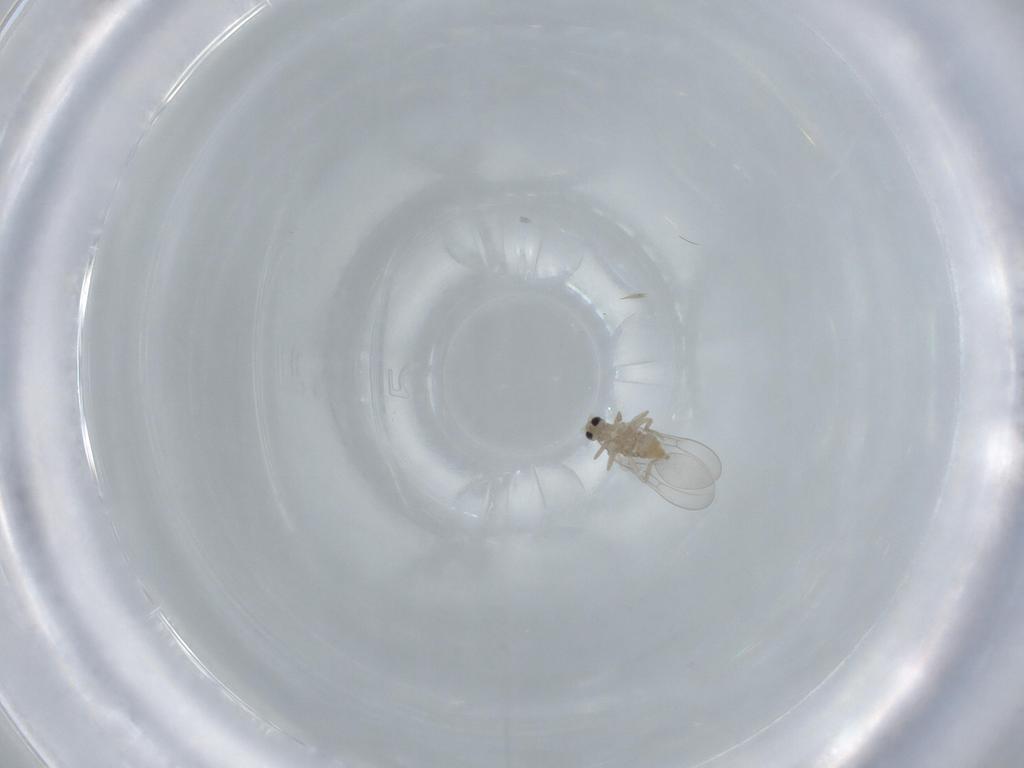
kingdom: Animalia
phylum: Arthropoda
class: Insecta
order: Diptera
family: Cecidomyiidae
